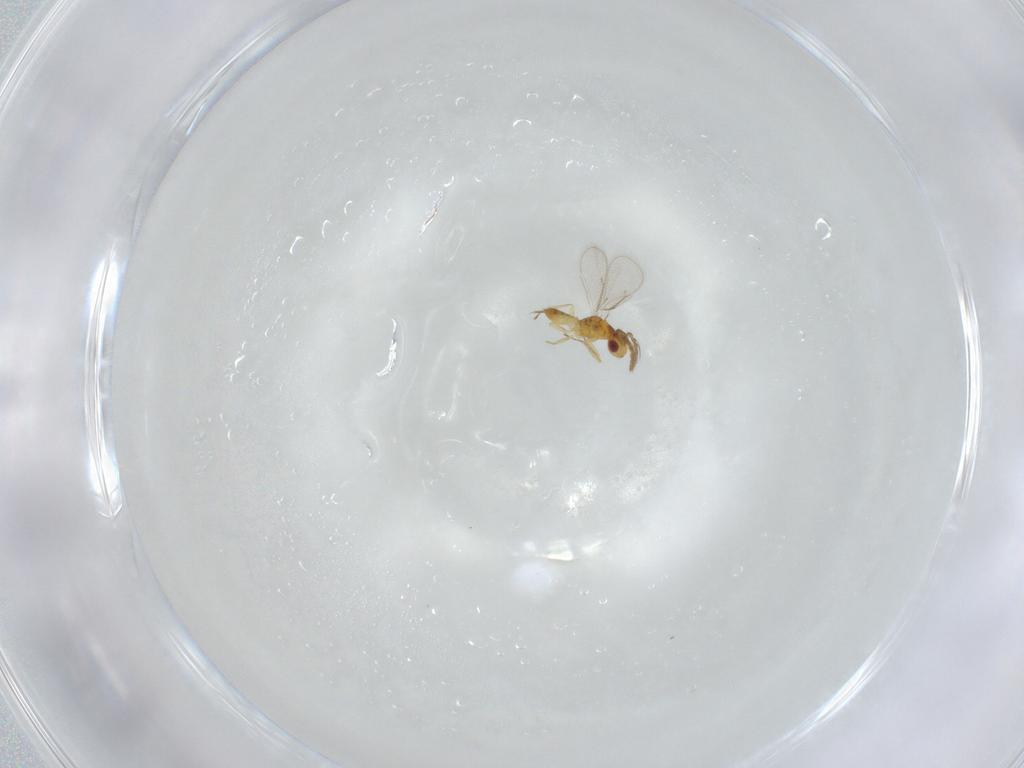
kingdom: Animalia
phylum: Arthropoda
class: Insecta
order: Hymenoptera
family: Eulophidae
